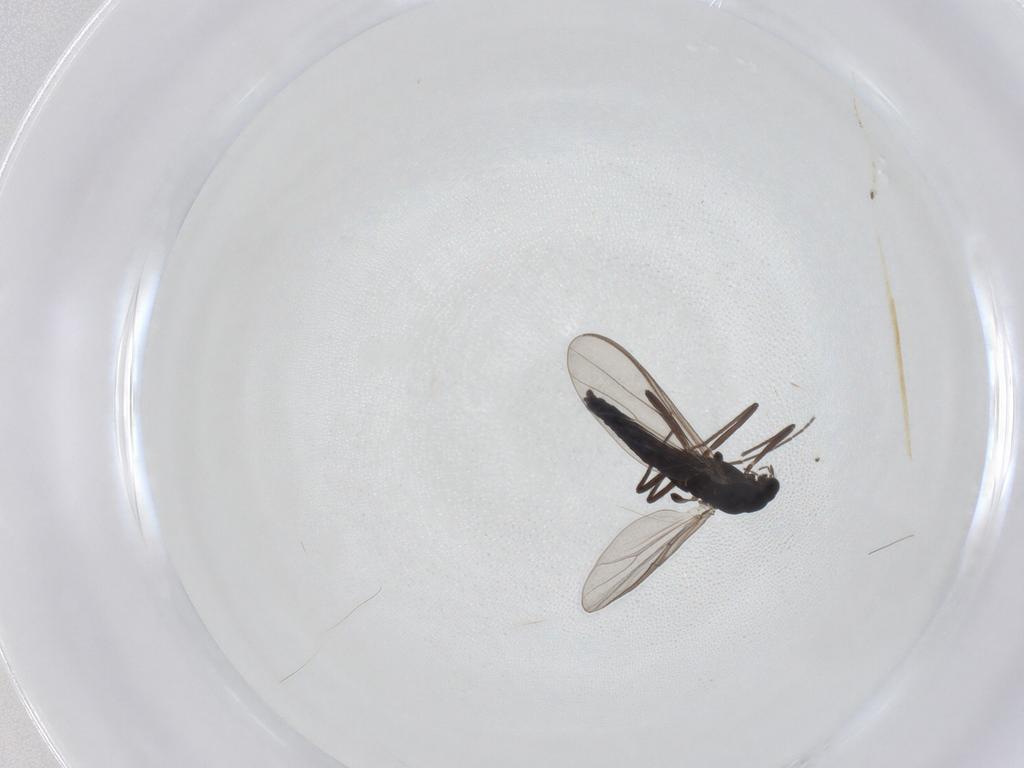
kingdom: Animalia
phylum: Arthropoda
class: Insecta
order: Diptera
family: Chironomidae
